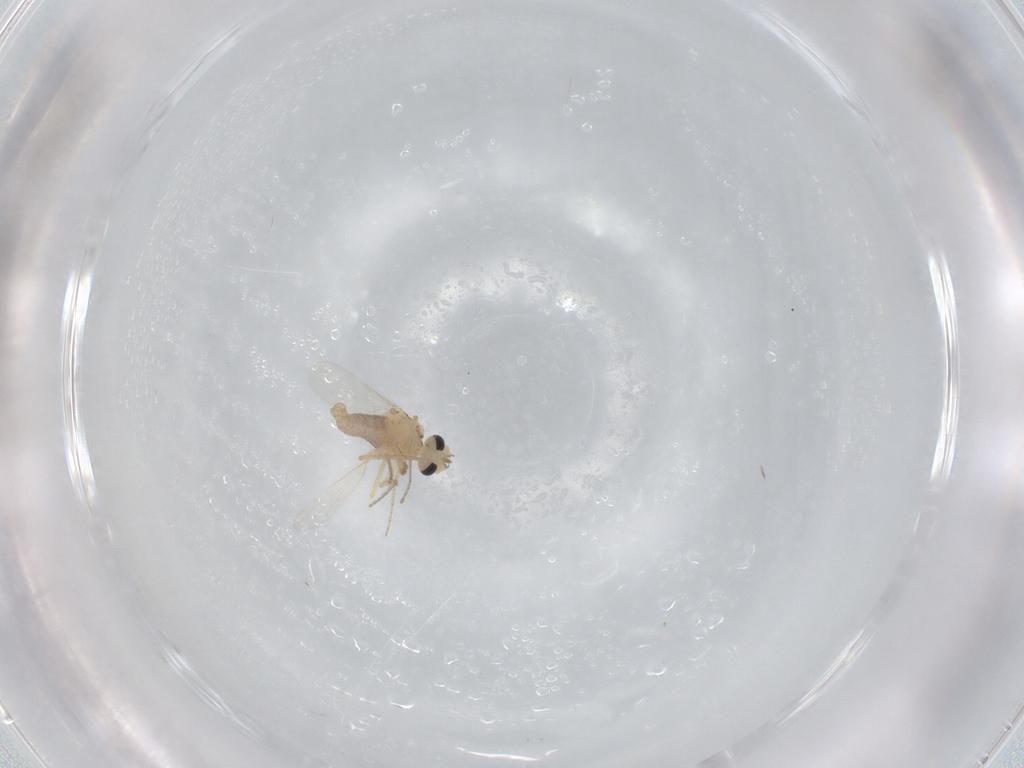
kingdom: Animalia
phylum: Arthropoda
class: Insecta
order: Diptera
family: Ceratopogonidae
